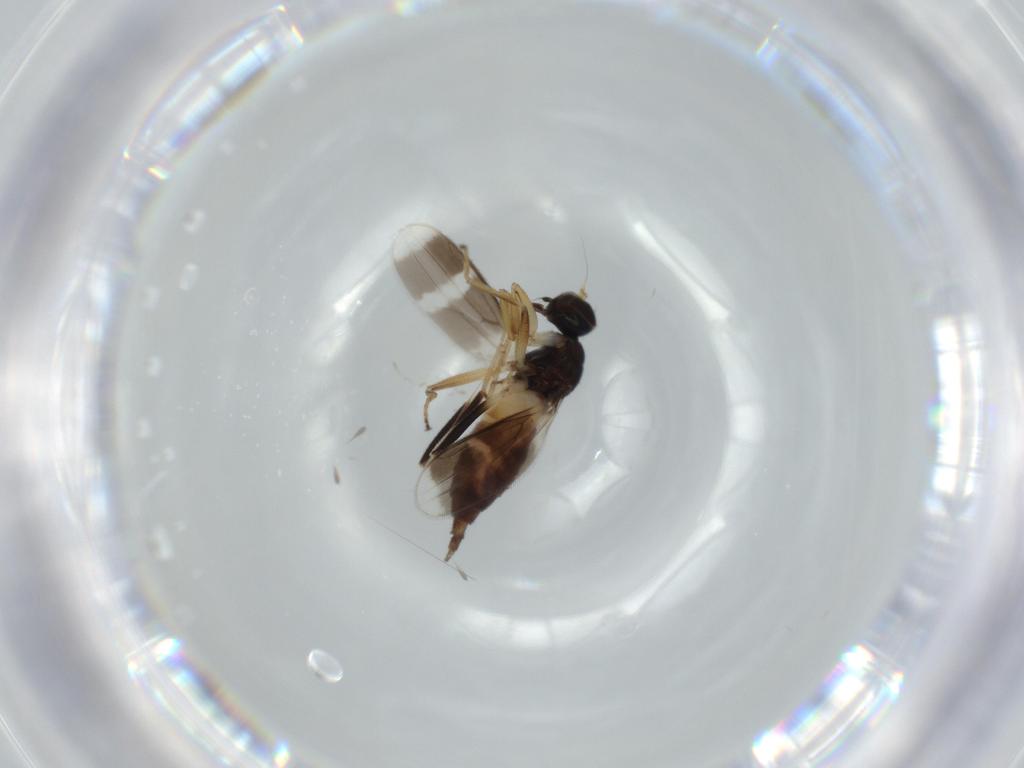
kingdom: Animalia
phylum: Arthropoda
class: Insecta
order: Diptera
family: Hybotidae
